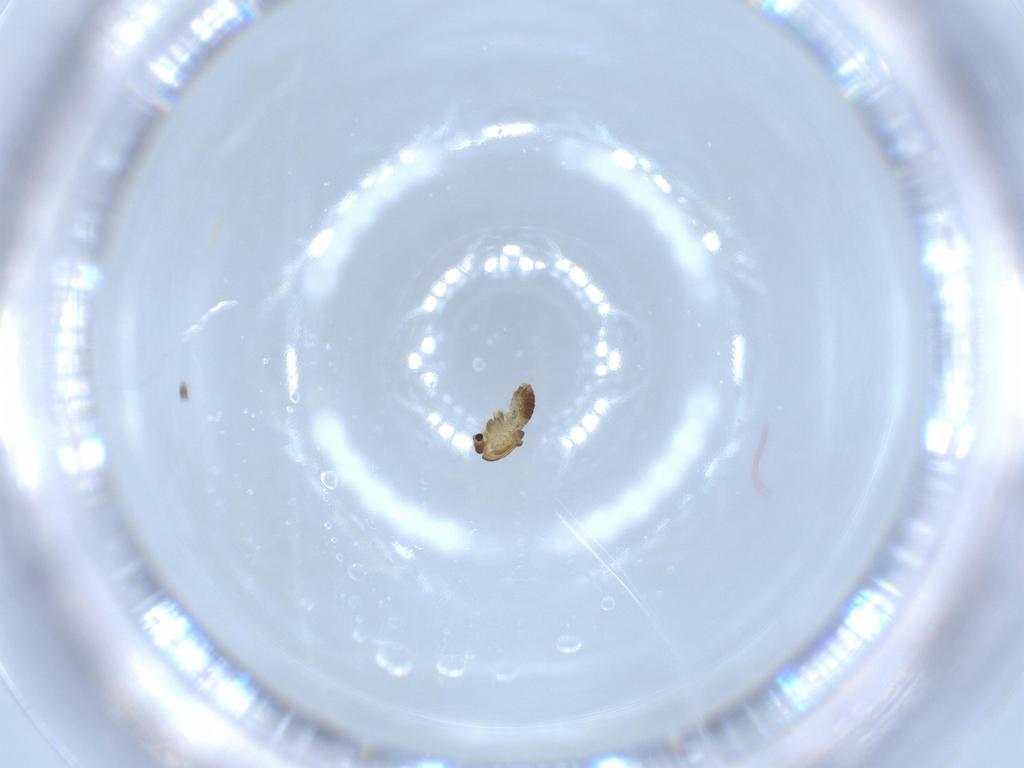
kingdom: Animalia
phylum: Arthropoda
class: Insecta
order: Diptera
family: Chironomidae
